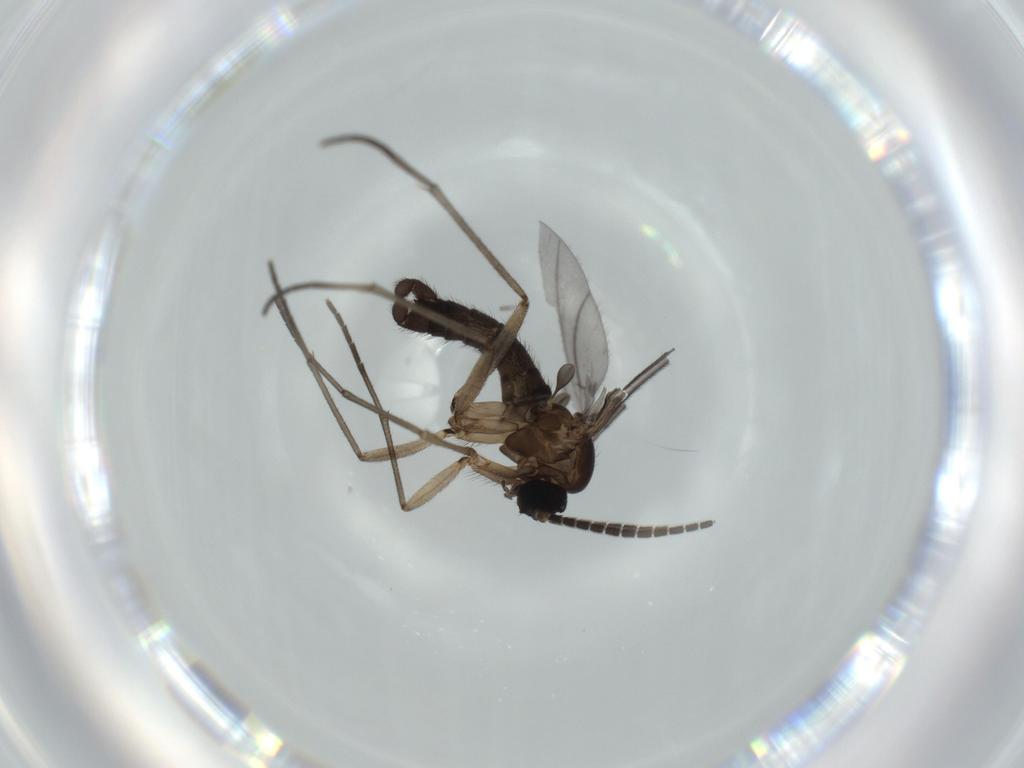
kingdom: Animalia
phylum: Arthropoda
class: Insecta
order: Diptera
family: Sciaridae
